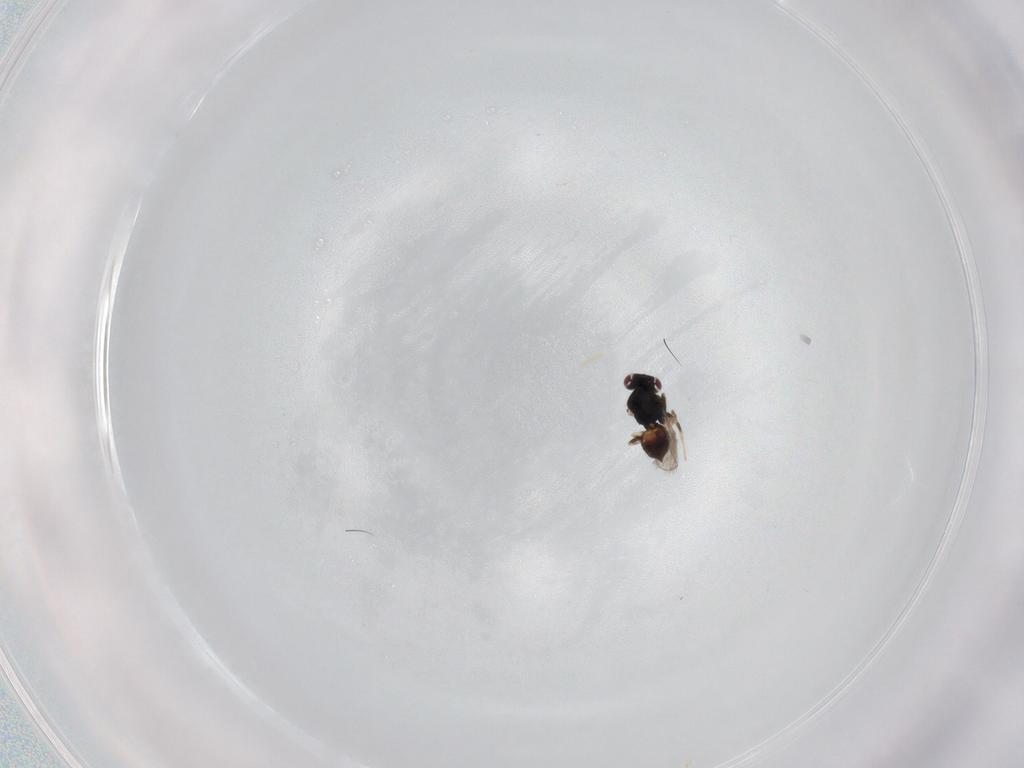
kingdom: Animalia
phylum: Arthropoda
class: Insecta
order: Hymenoptera
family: Eulophidae
